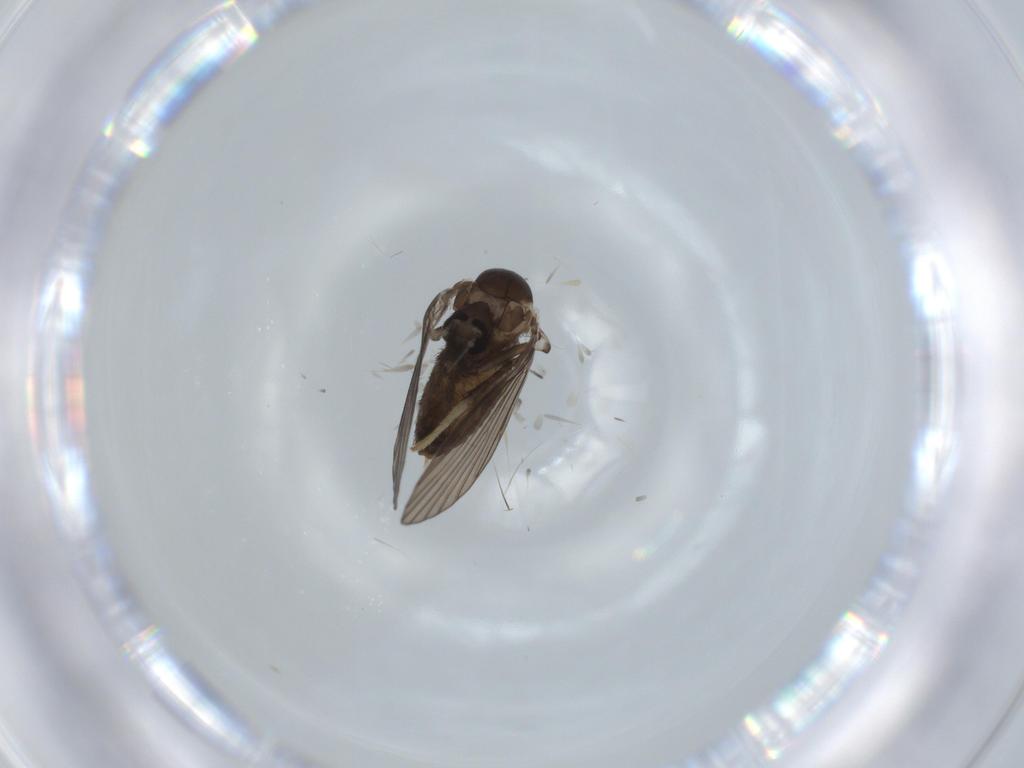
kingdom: Animalia
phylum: Arthropoda
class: Insecta
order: Diptera
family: Psychodidae
